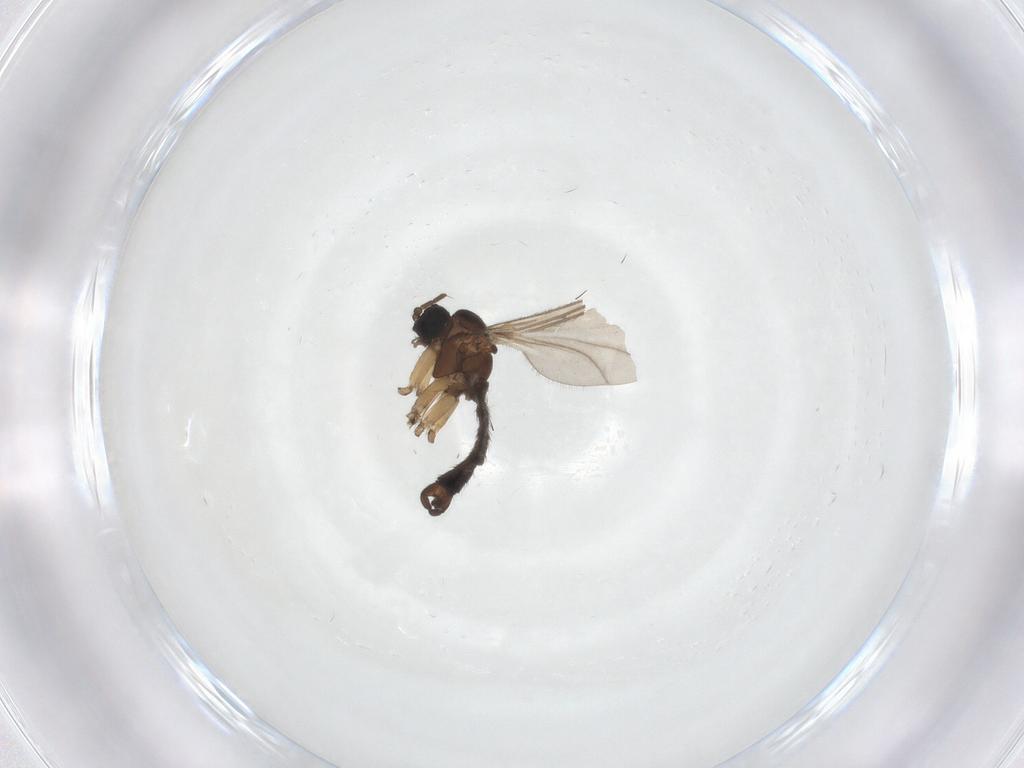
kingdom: Animalia
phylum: Arthropoda
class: Insecta
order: Diptera
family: Sciaridae
